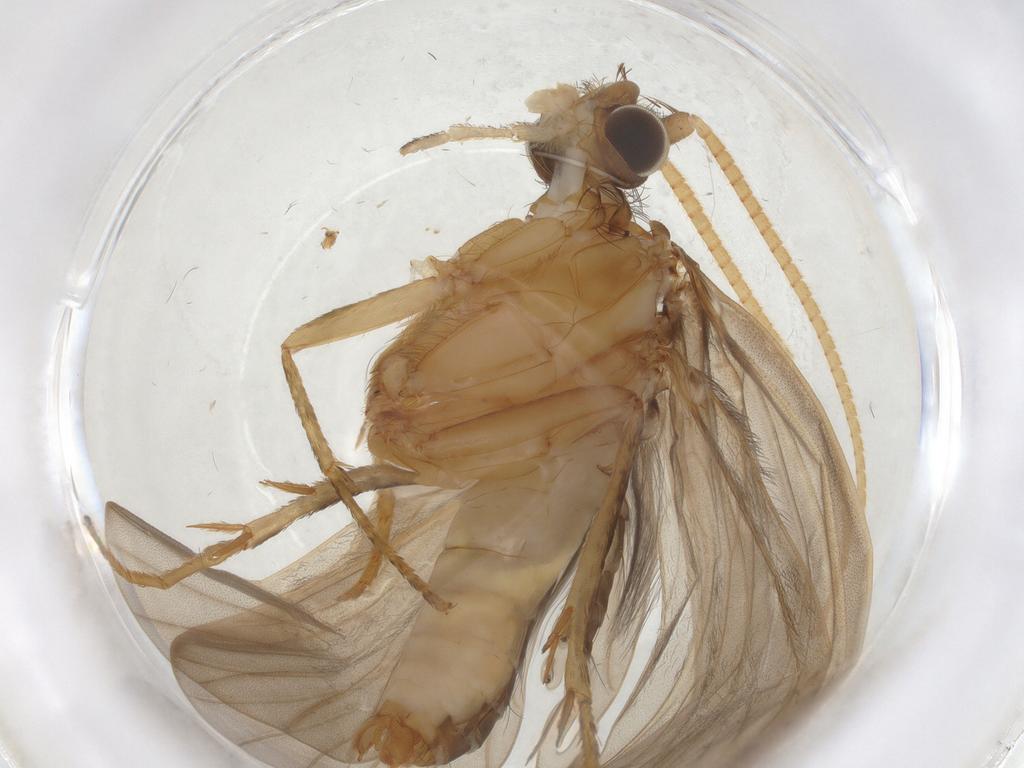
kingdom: Animalia
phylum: Arthropoda
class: Insecta
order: Trichoptera
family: Lepidostomatidae
